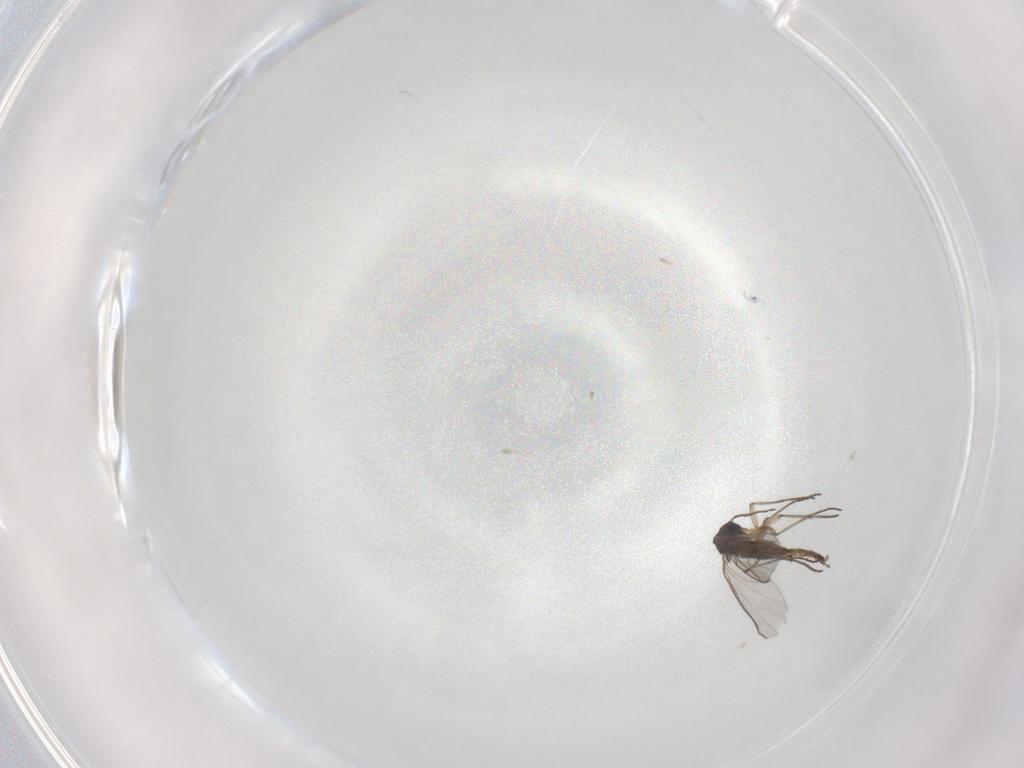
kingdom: Animalia
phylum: Arthropoda
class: Insecta
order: Diptera
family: Sciaridae
